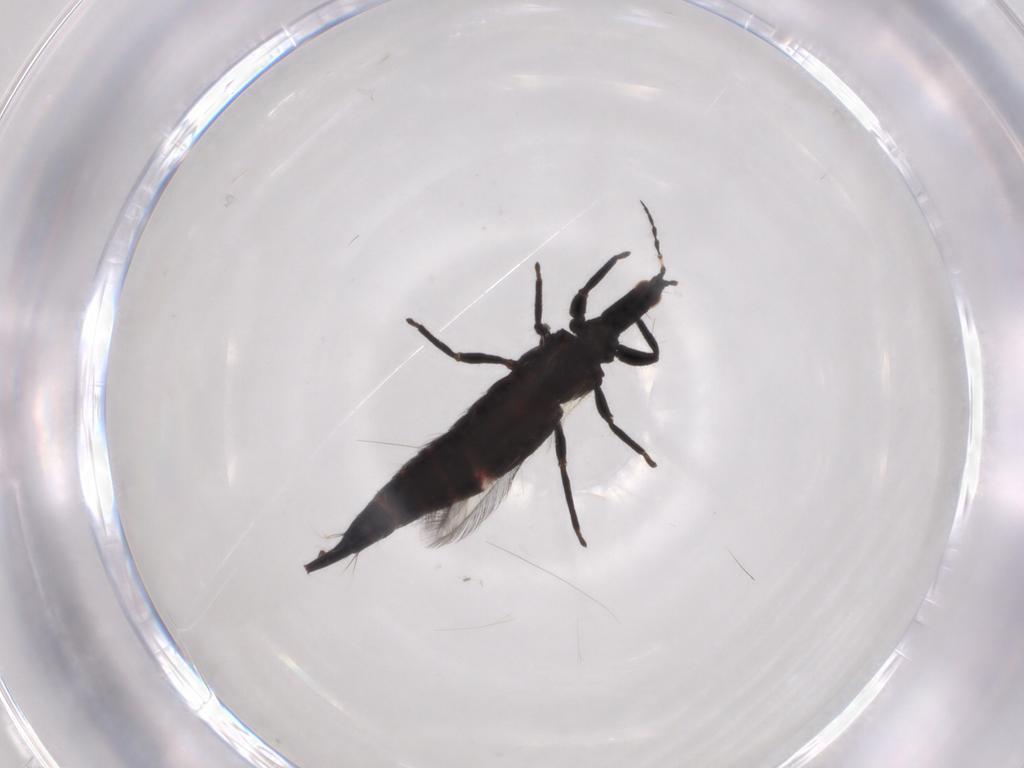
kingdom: Animalia
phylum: Arthropoda
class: Insecta
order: Thysanoptera
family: Phlaeothripidae
